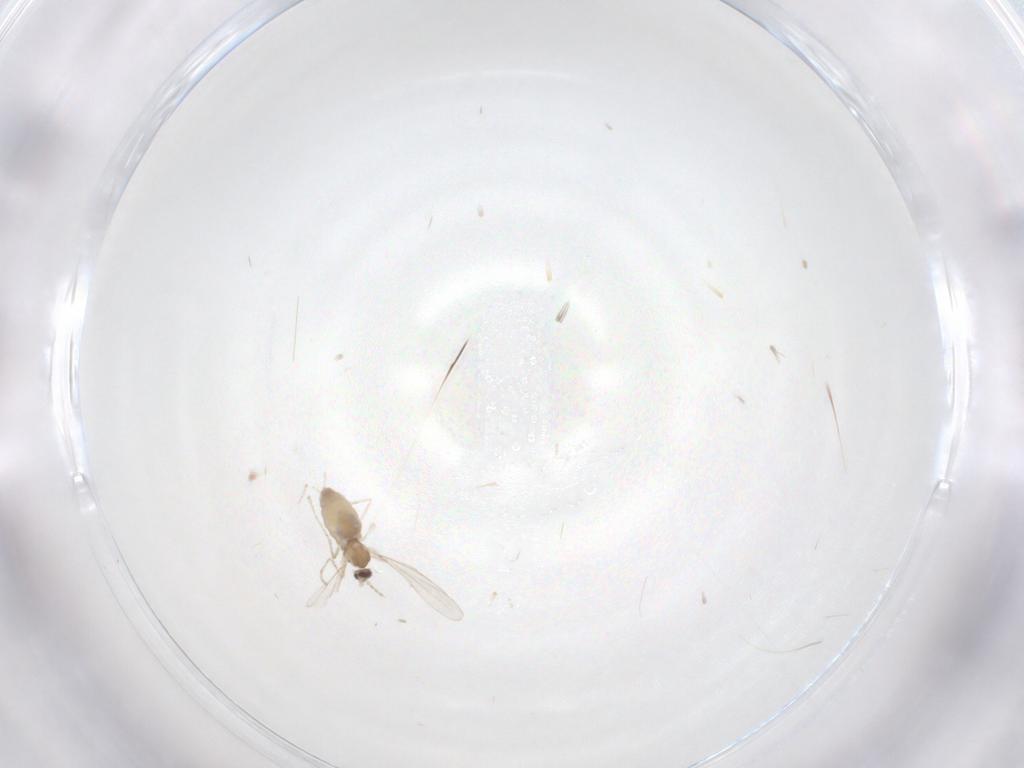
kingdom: Animalia
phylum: Arthropoda
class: Insecta
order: Diptera
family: Cecidomyiidae
